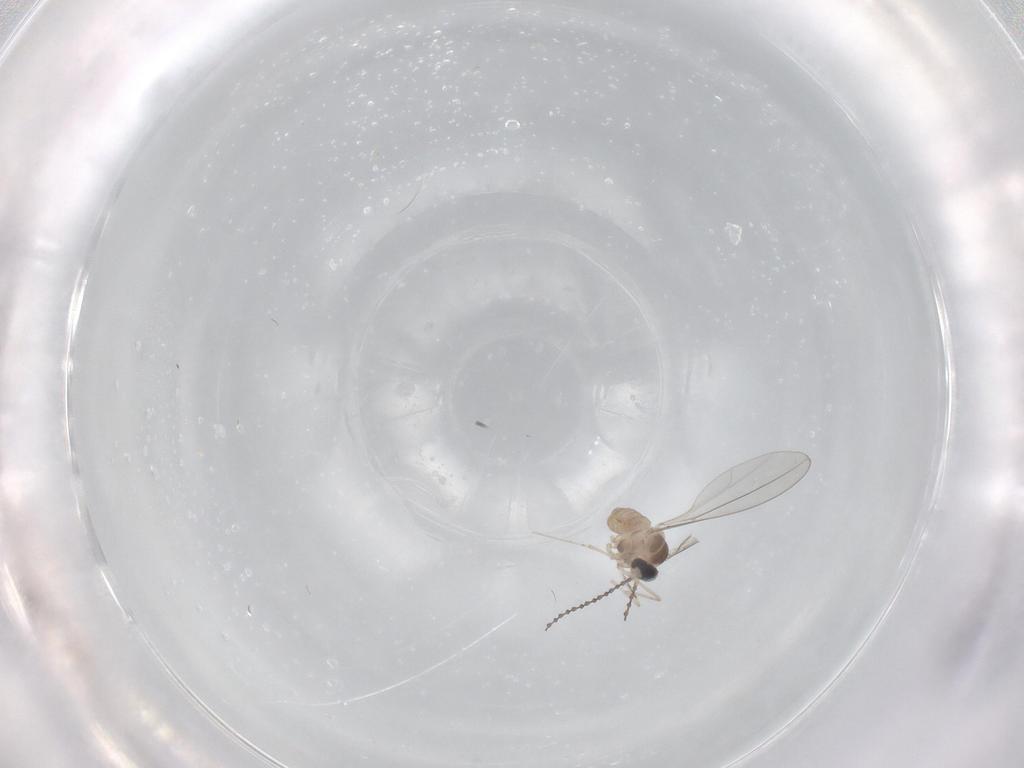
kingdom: Animalia
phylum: Arthropoda
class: Insecta
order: Diptera
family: Cecidomyiidae
